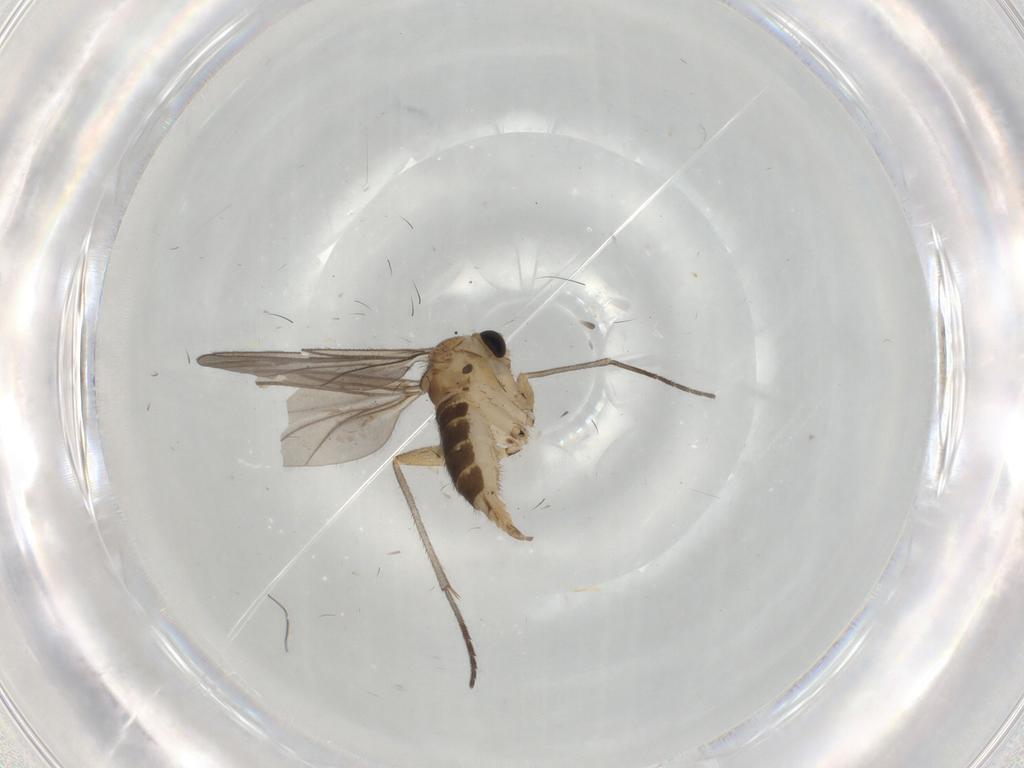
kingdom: Animalia
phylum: Arthropoda
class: Insecta
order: Diptera
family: Sciaridae
